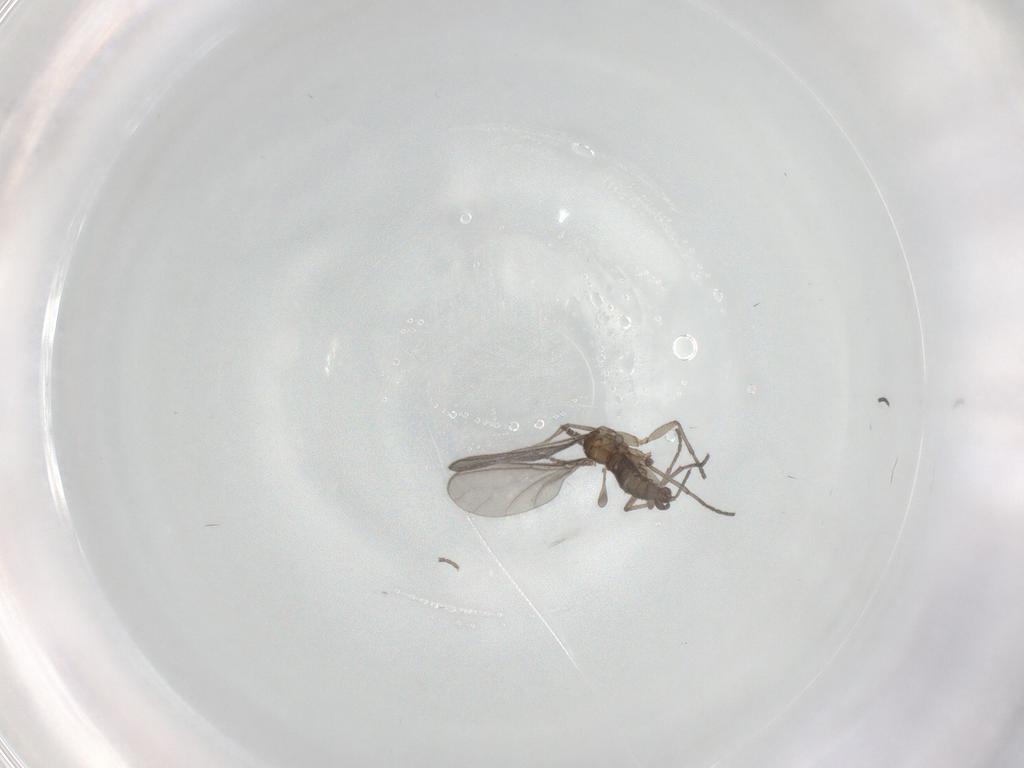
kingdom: Animalia
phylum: Arthropoda
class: Insecta
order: Diptera
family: Sciaridae
